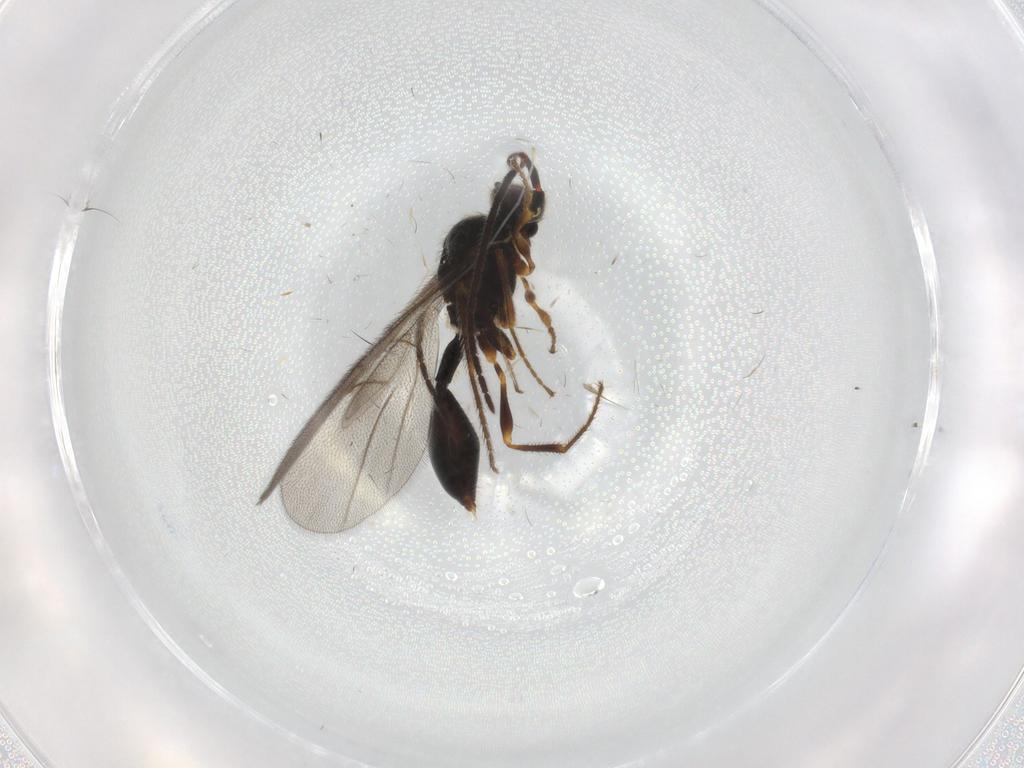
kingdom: Animalia
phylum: Arthropoda
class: Insecta
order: Hymenoptera
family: Diapriidae
